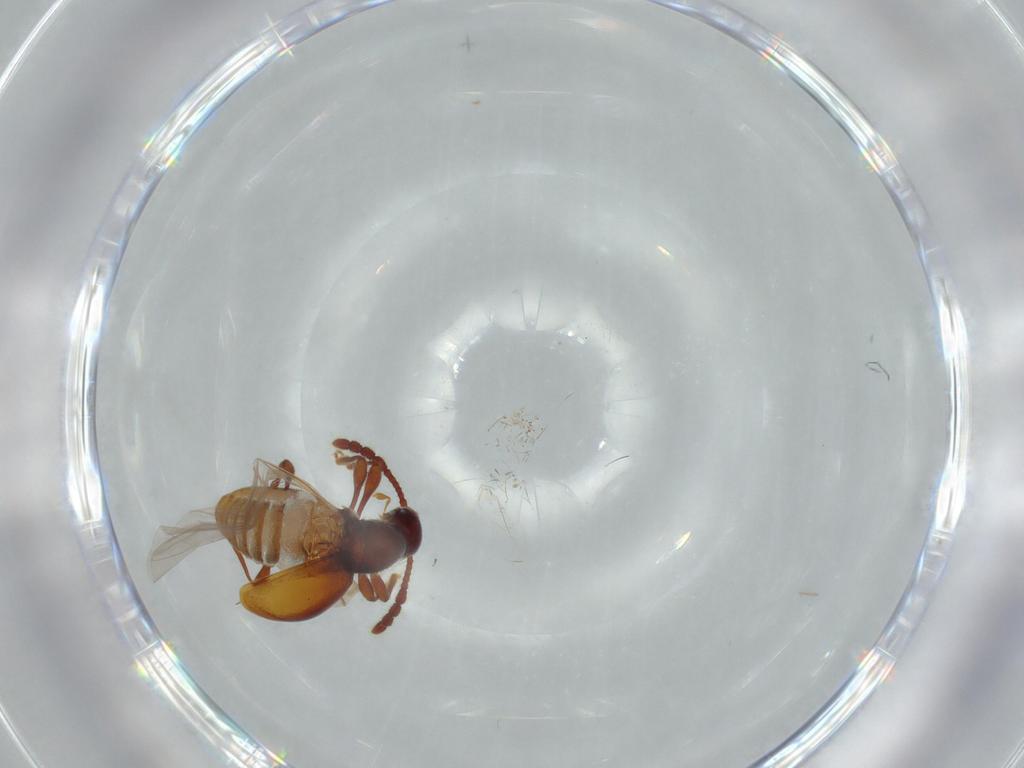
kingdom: Animalia
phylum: Arthropoda
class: Insecta
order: Coleoptera
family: Staphylinidae
